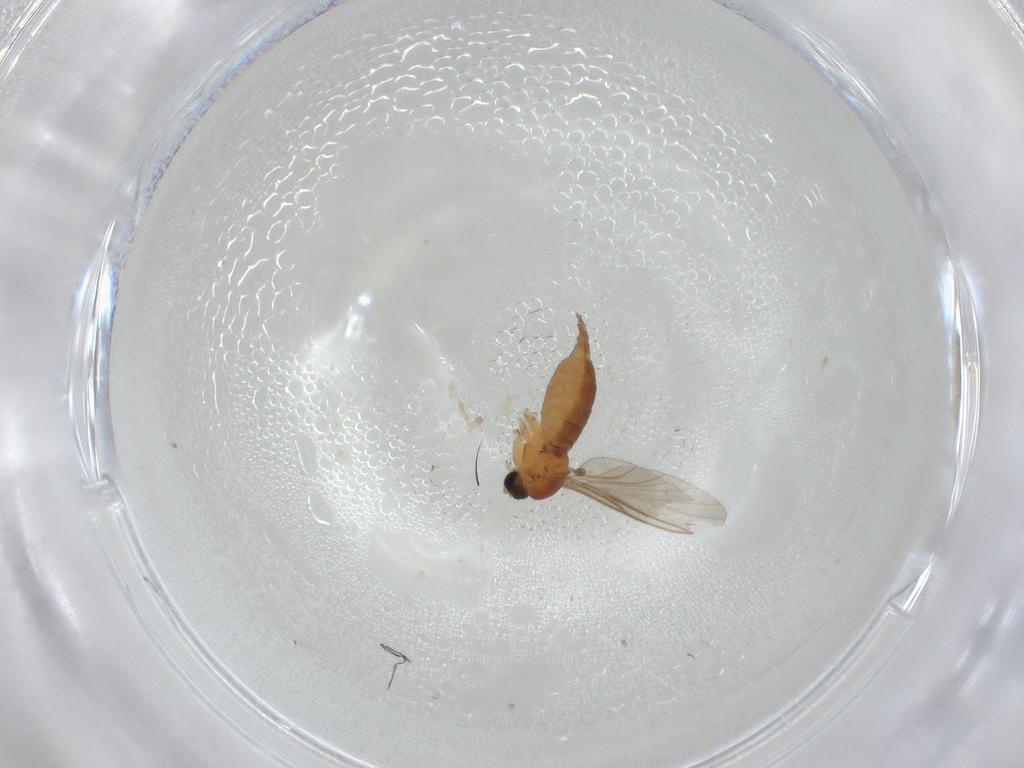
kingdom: Animalia
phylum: Arthropoda
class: Insecta
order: Diptera
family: Sciaridae
